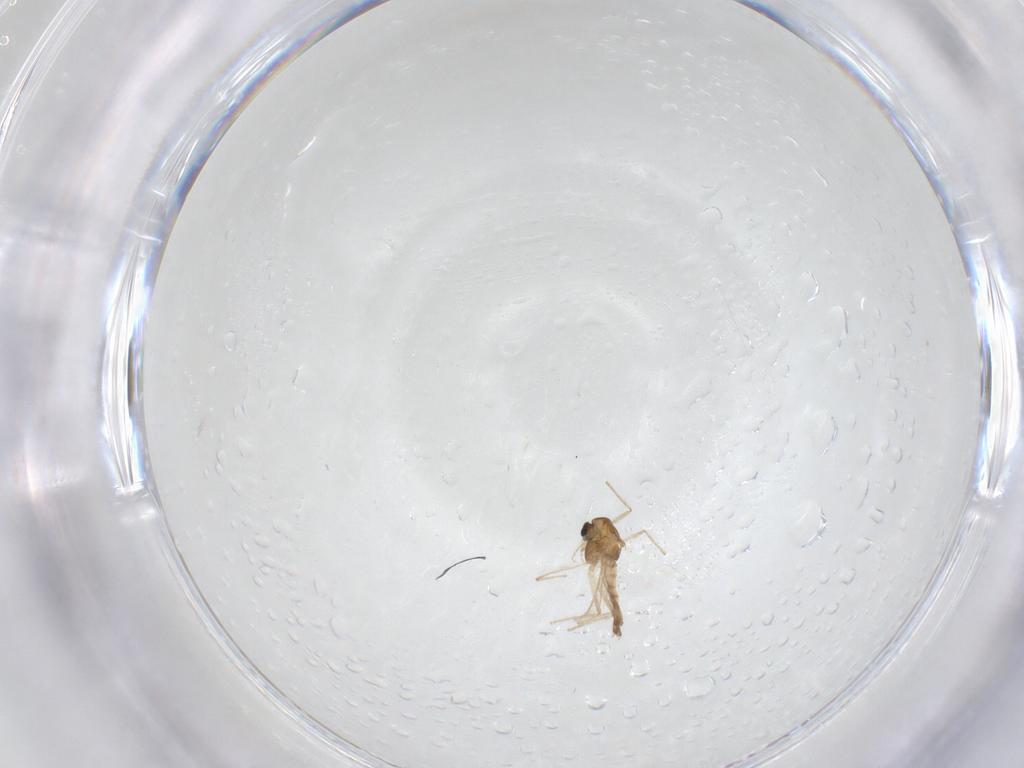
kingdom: Animalia
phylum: Arthropoda
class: Insecta
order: Diptera
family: Chironomidae
